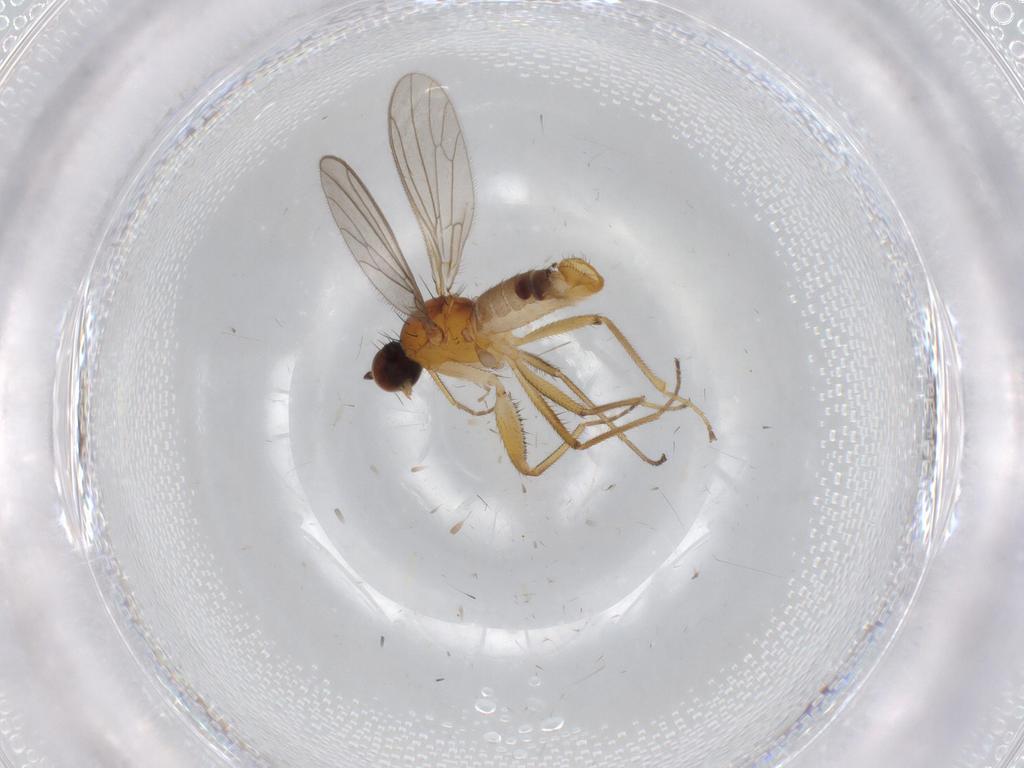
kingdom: Animalia
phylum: Arthropoda
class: Insecta
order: Diptera
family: Empididae
